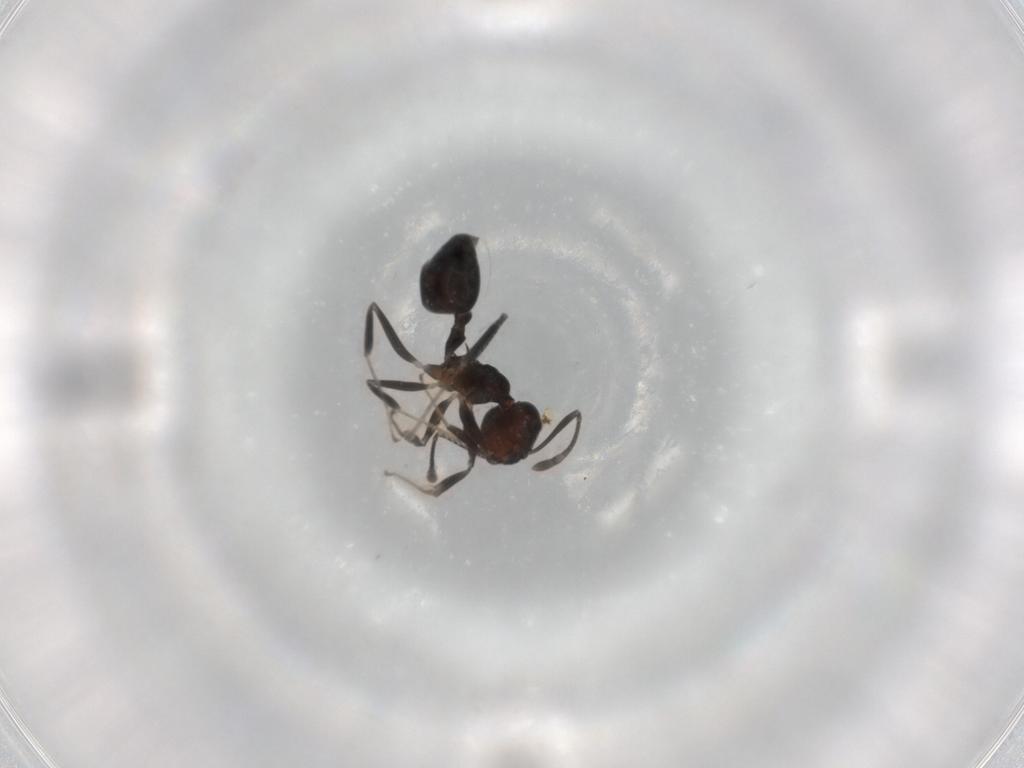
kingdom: Animalia
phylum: Arthropoda
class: Insecta
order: Hymenoptera
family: Formicidae
